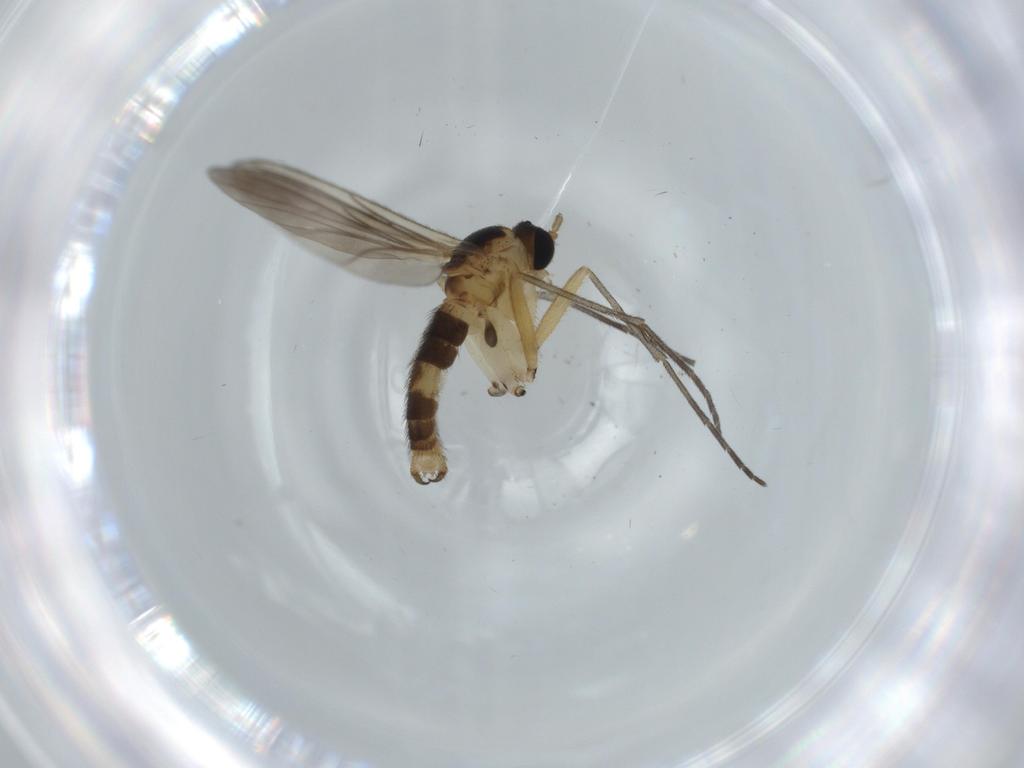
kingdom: Animalia
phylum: Arthropoda
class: Insecta
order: Diptera
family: Sciaridae
